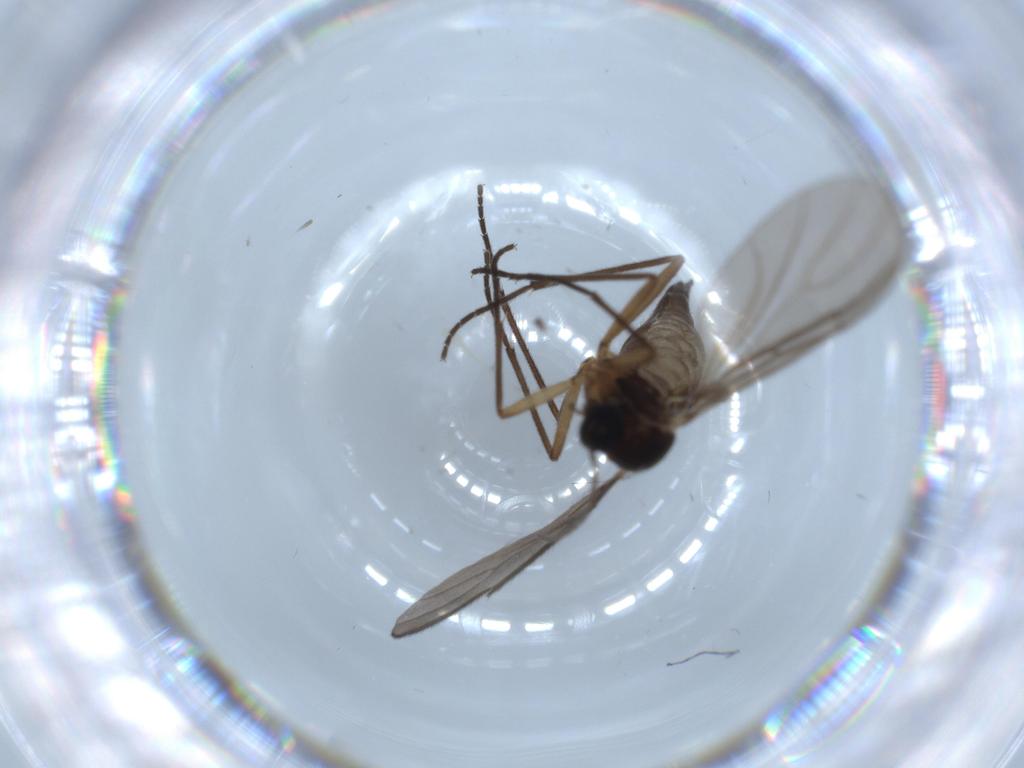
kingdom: Animalia
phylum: Arthropoda
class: Insecta
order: Diptera
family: Sciaridae
